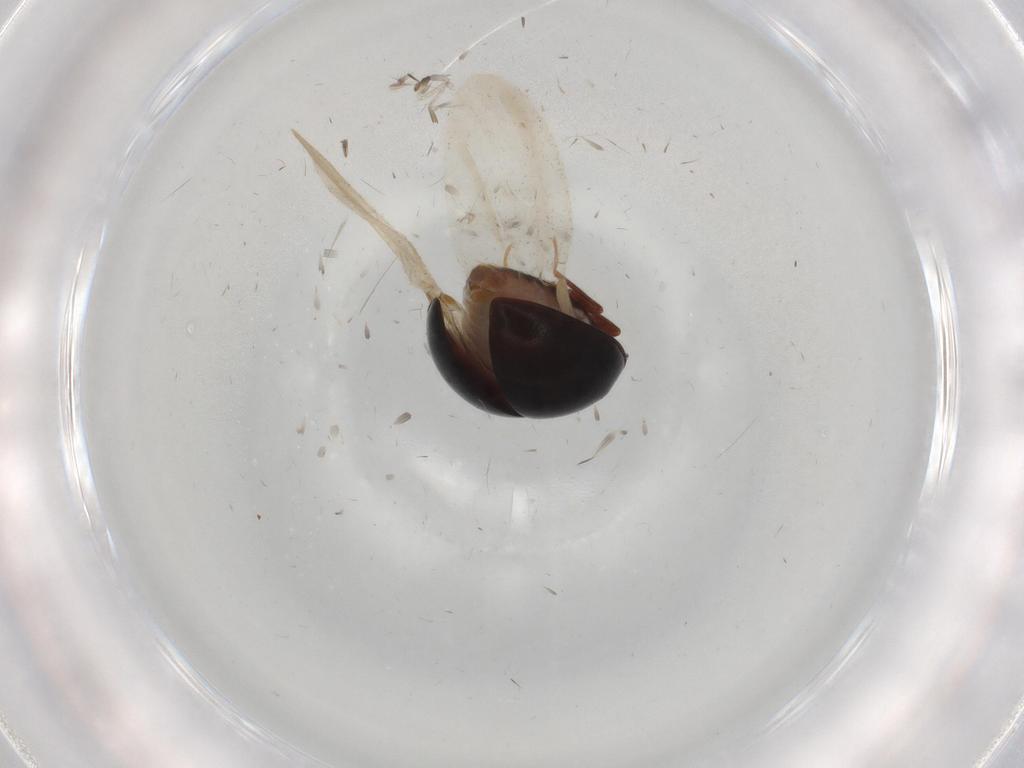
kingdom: Animalia
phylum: Arthropoda
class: Insecta
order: Coleoptera
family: Anamorphidae
